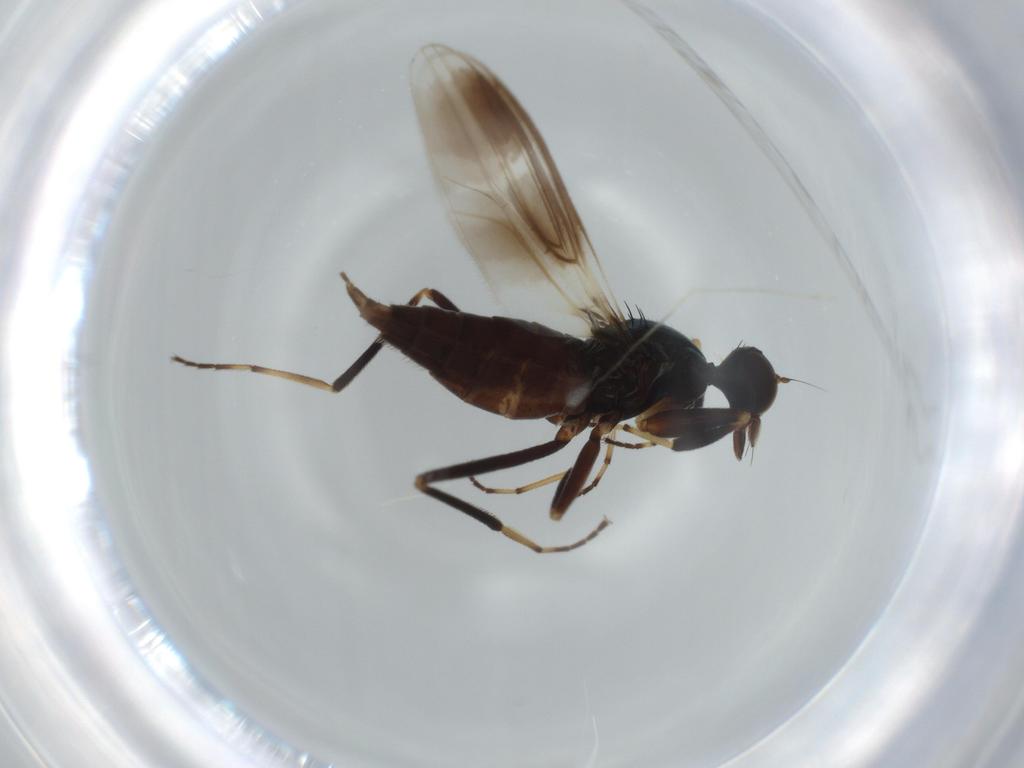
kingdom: Animalia
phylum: Arthropoda
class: Insecta
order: Diptera
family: Hybotidae
